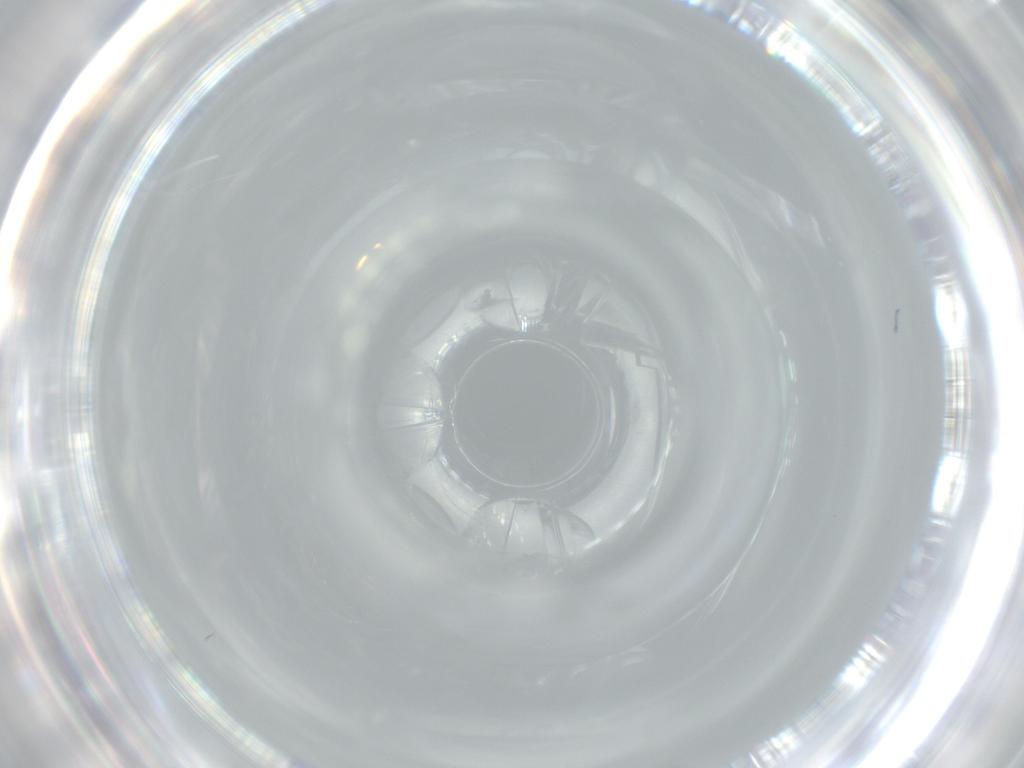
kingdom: Animalia
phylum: Arthropoda
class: Insecta
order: Diptera
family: Cecidomyiidae
